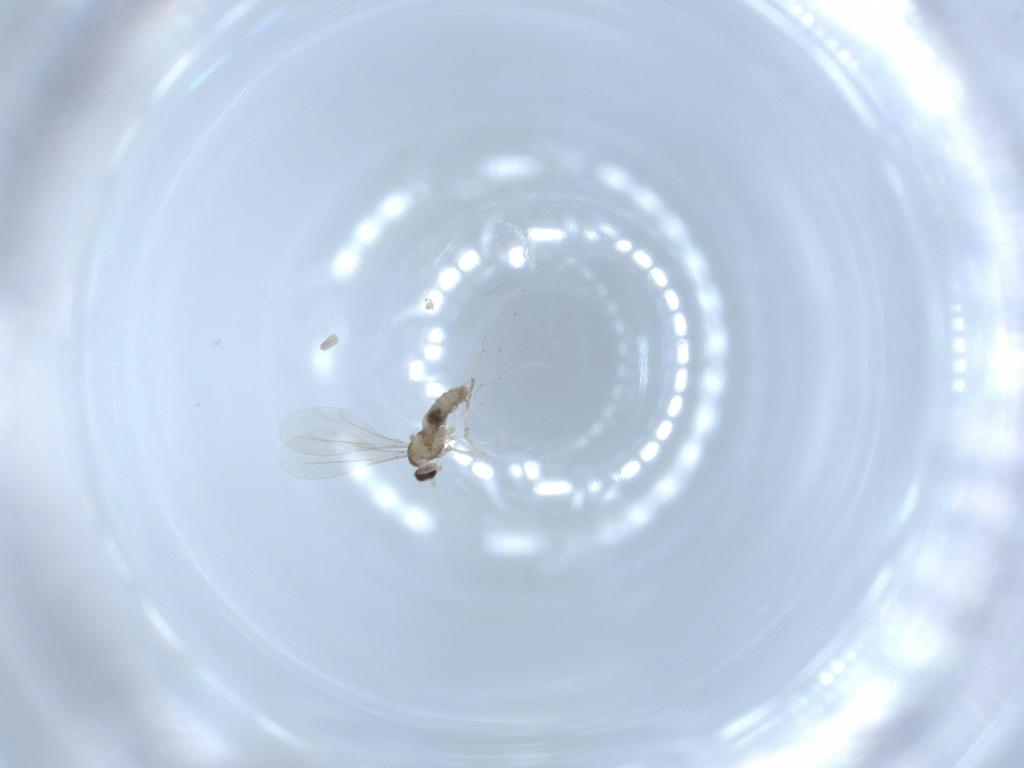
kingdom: Animalia
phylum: Arthropoda
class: Insecta
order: Diptera
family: Cecidomyiidae
